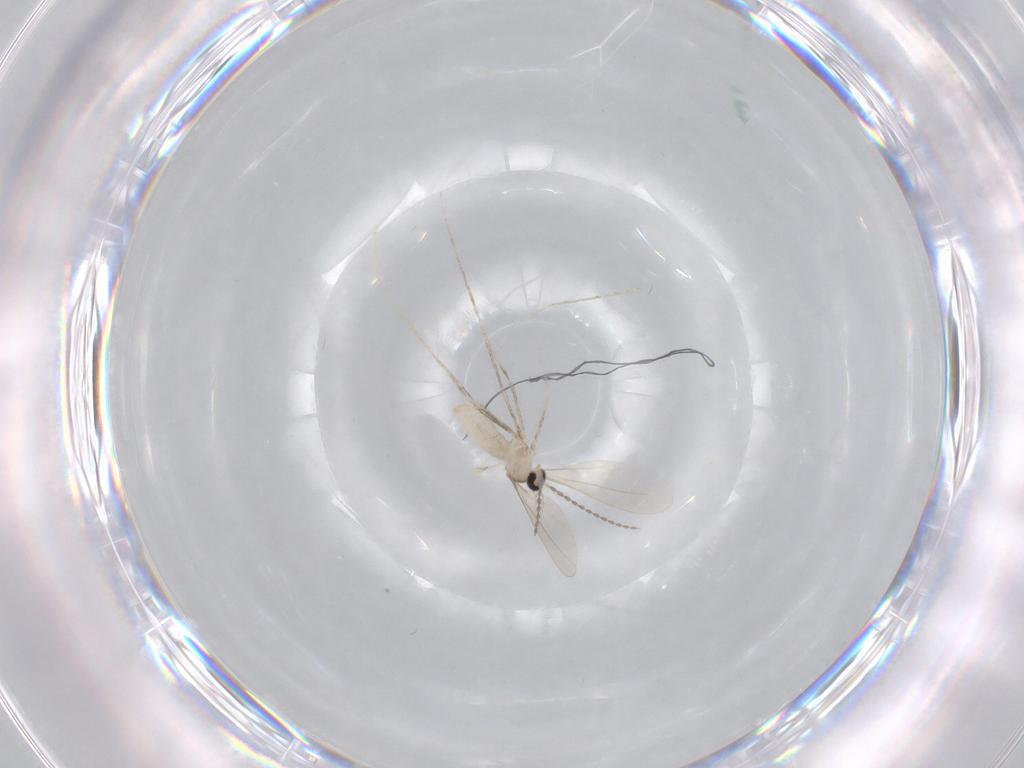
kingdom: Animalia
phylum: Arthropoda
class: Insecta
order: Diptera
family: Cecidomyiidae
